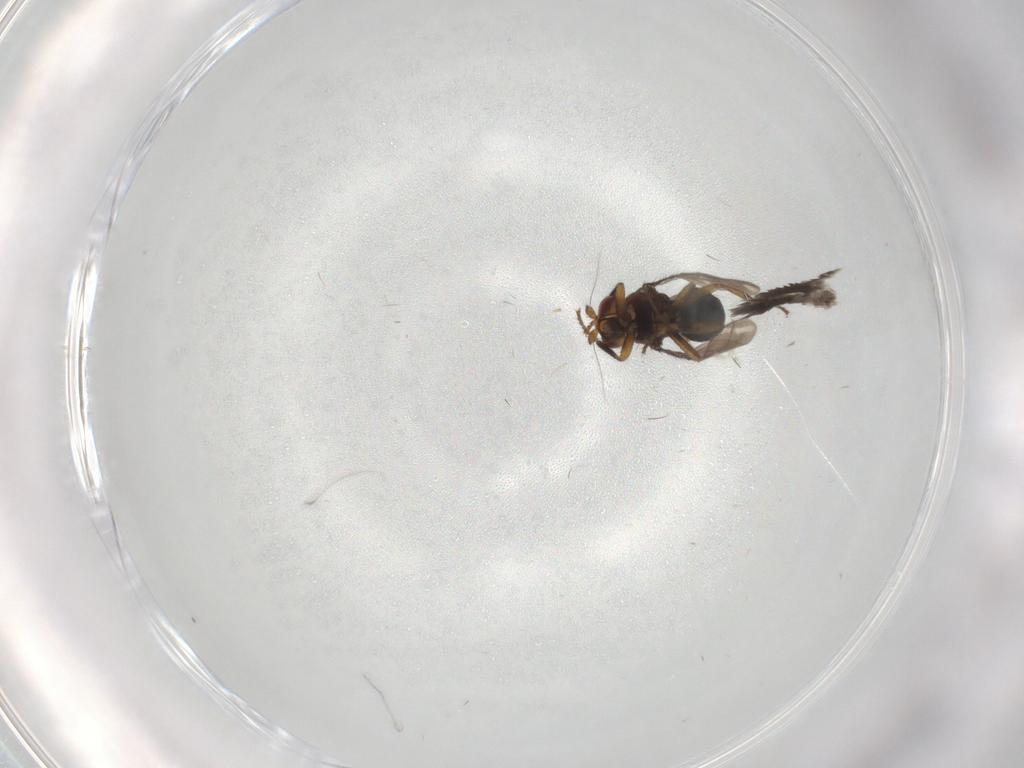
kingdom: Animalia
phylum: Arthropoda
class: Insecta
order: Diptera
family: Sphaeroceridae
